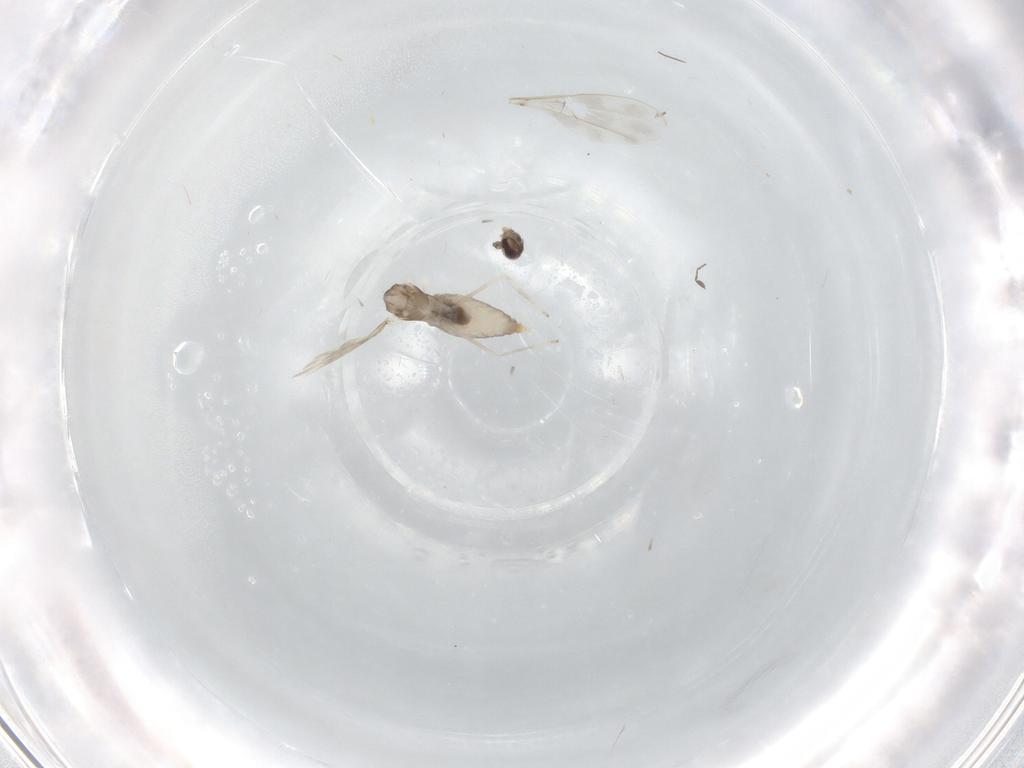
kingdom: Animalia
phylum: Arthropoda
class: Insecta
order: Diptera
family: Cecidomyiidae
